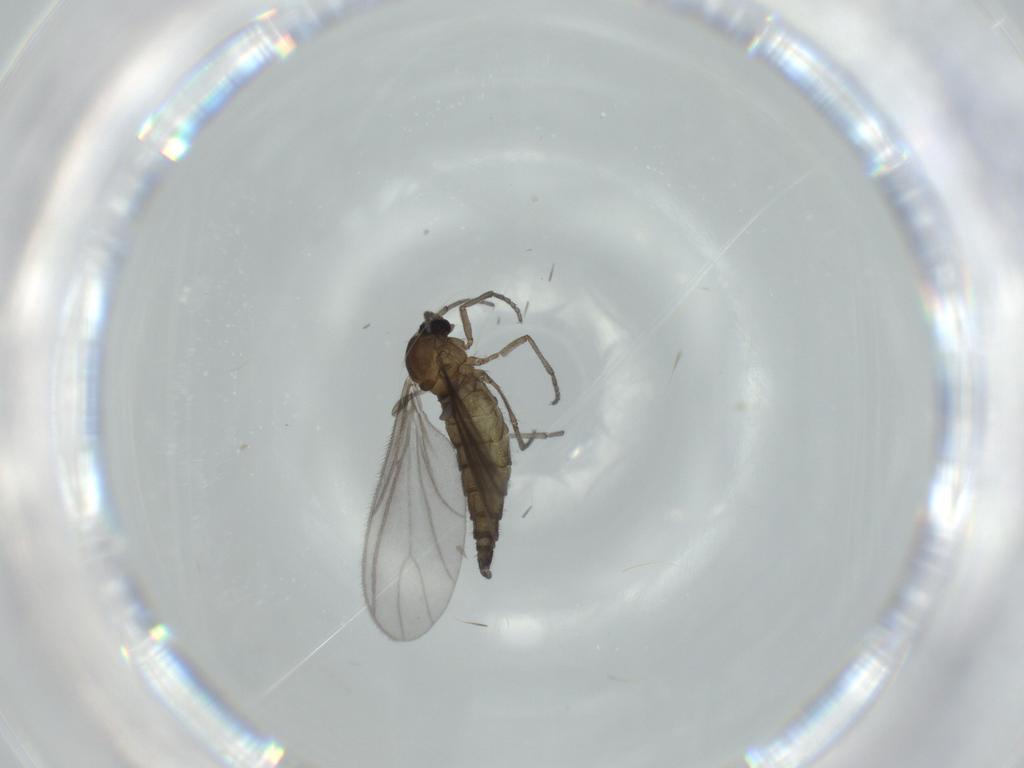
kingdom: Animalia
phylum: Arthropoda
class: Insecta
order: Diptera
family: Sciaridae
